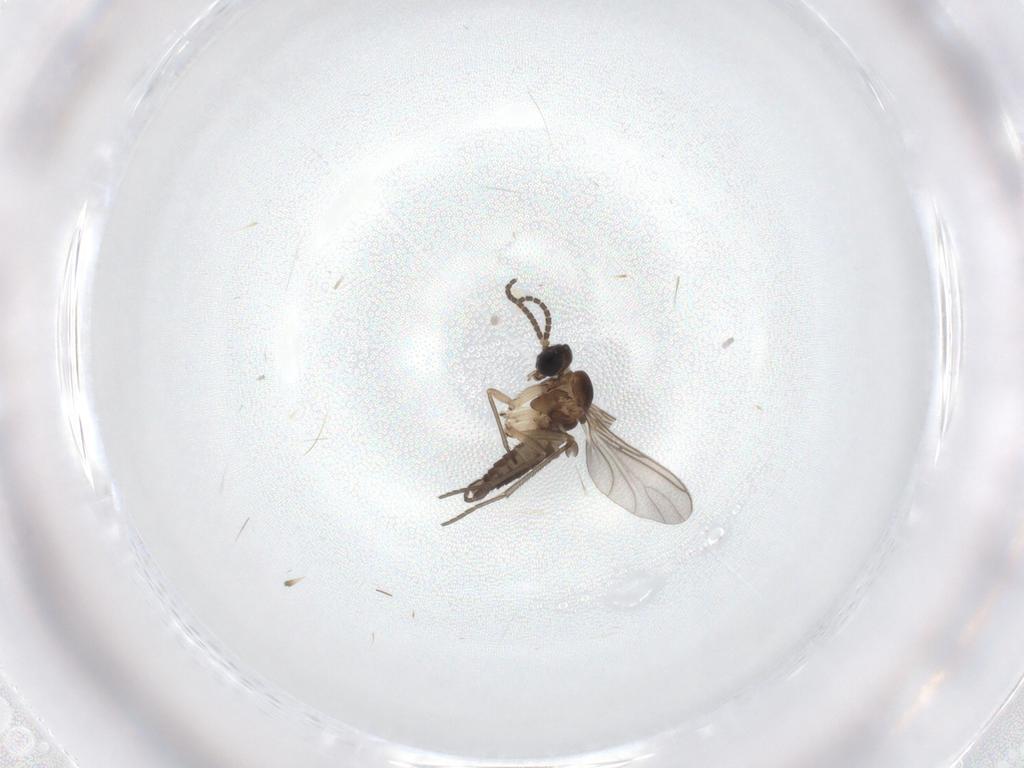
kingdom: Animalia
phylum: Arthropoda
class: Insecta
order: Diptera
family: Sciaridae
